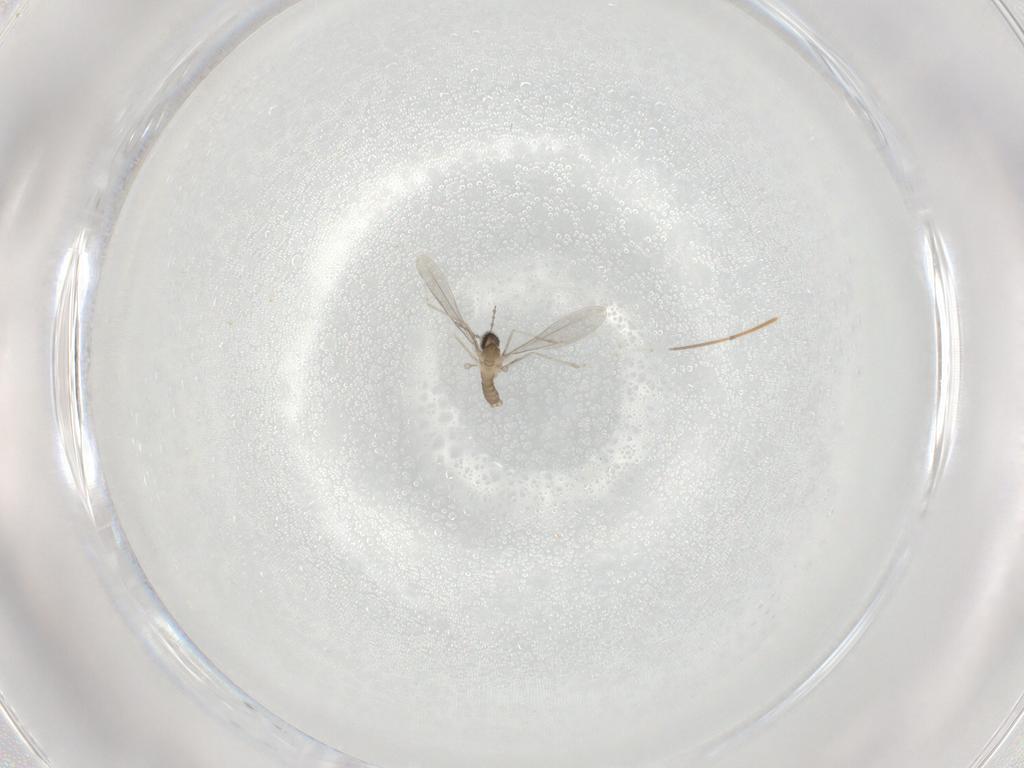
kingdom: Animalia
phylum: Arthropoda
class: Insecta
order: Diptera
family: Cecidomyiidae
